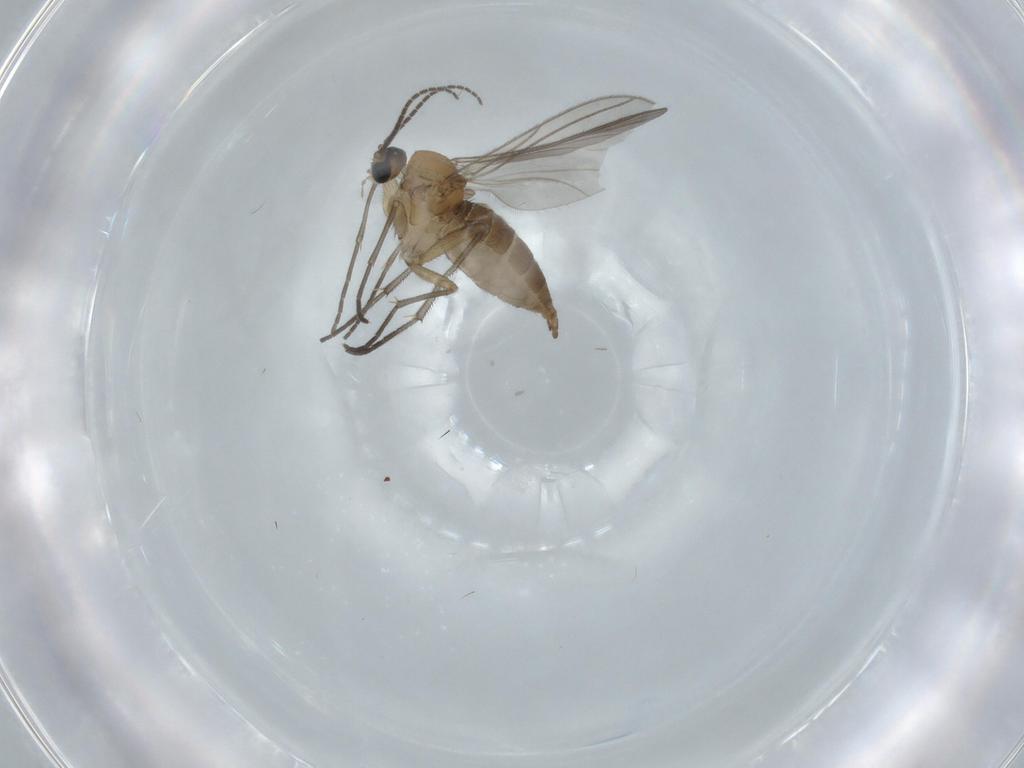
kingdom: Animalia
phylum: Arthropoda
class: Insecta
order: Diptera
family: Sciaridae
